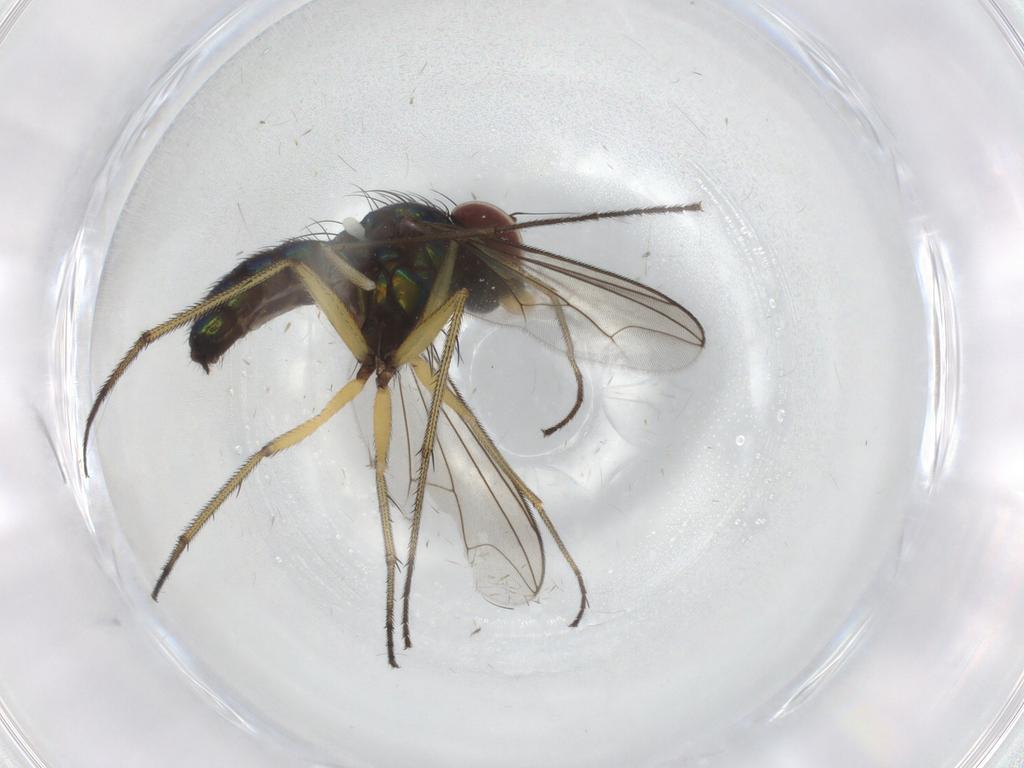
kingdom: Animalia
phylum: Arthropoda
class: Insecta
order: Diptera
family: Dolichopodidae
